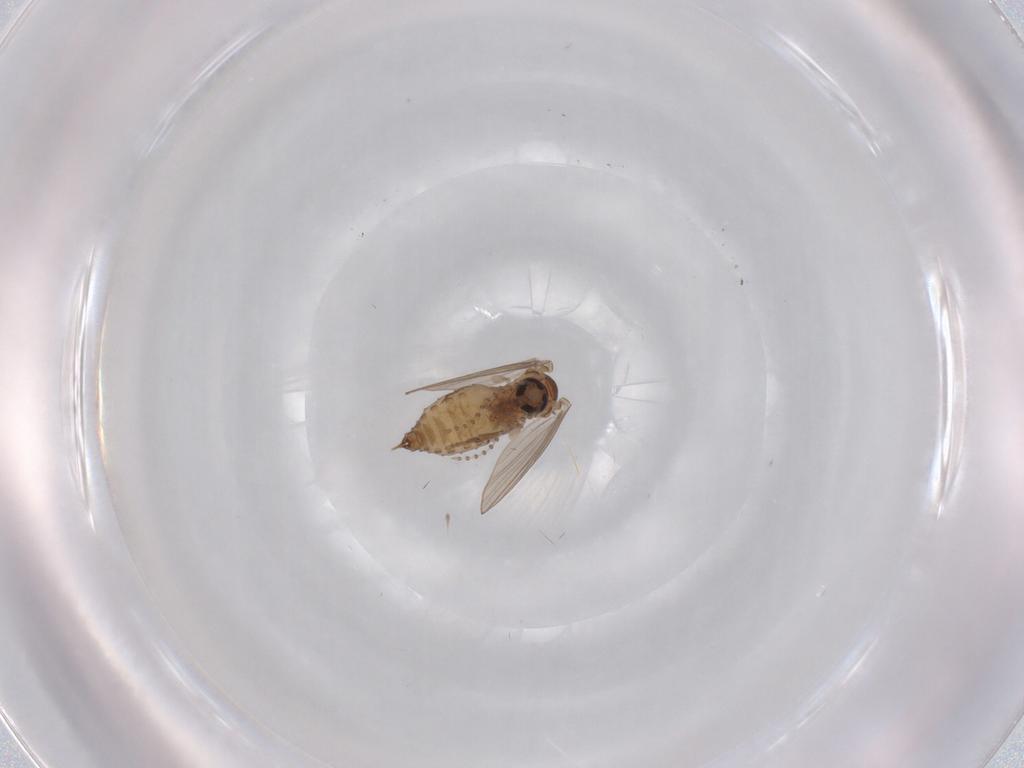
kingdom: Animalia
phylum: Arthropoda
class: Insecta
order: Diptera
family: Psychodidae
